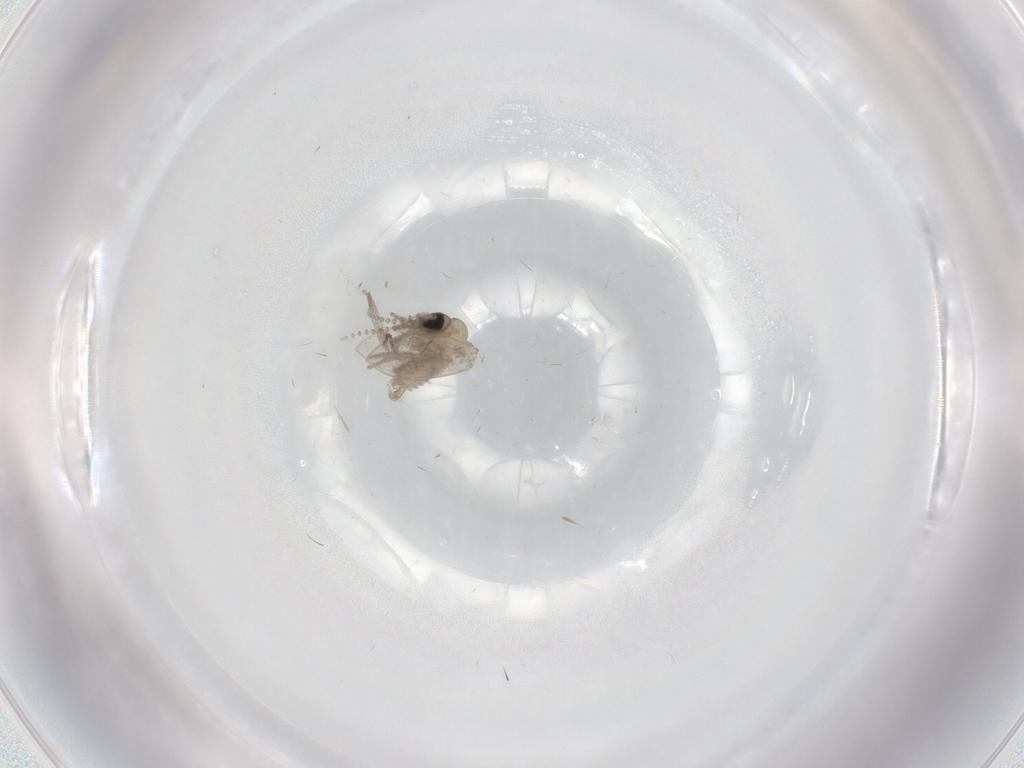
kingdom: Animalia
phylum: Arthropoda
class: Insecta
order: Diptera
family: Psychodidae
